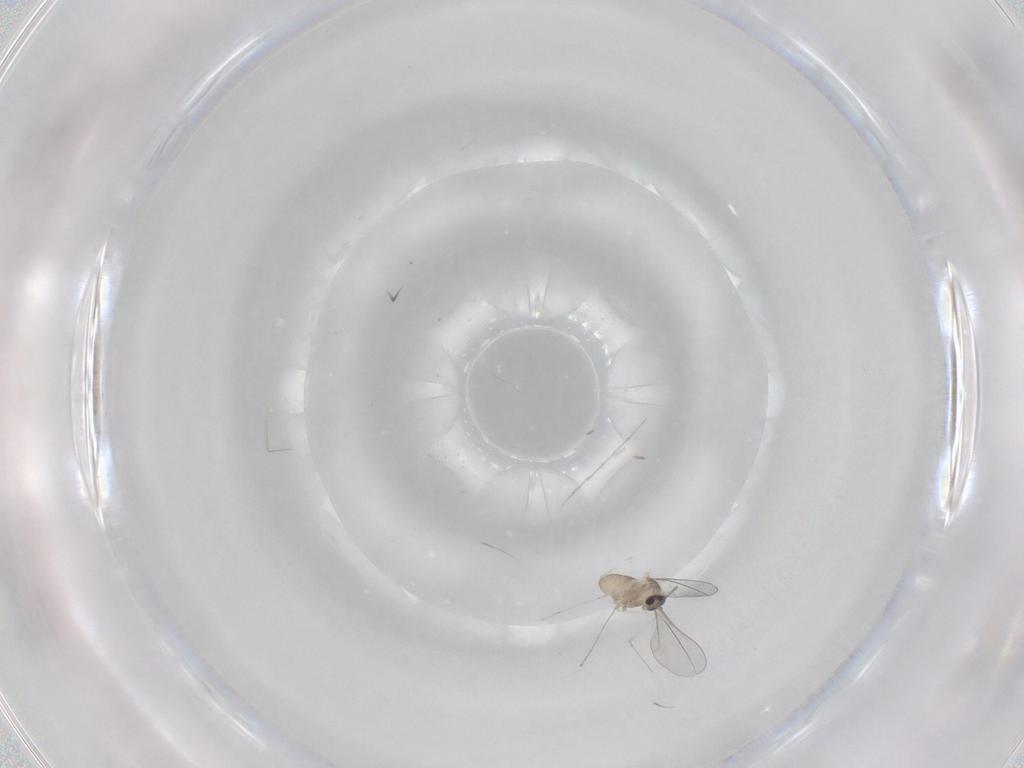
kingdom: Animalia
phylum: Arthropoda
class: Insecta
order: Diptera
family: Cecidomyiidae
